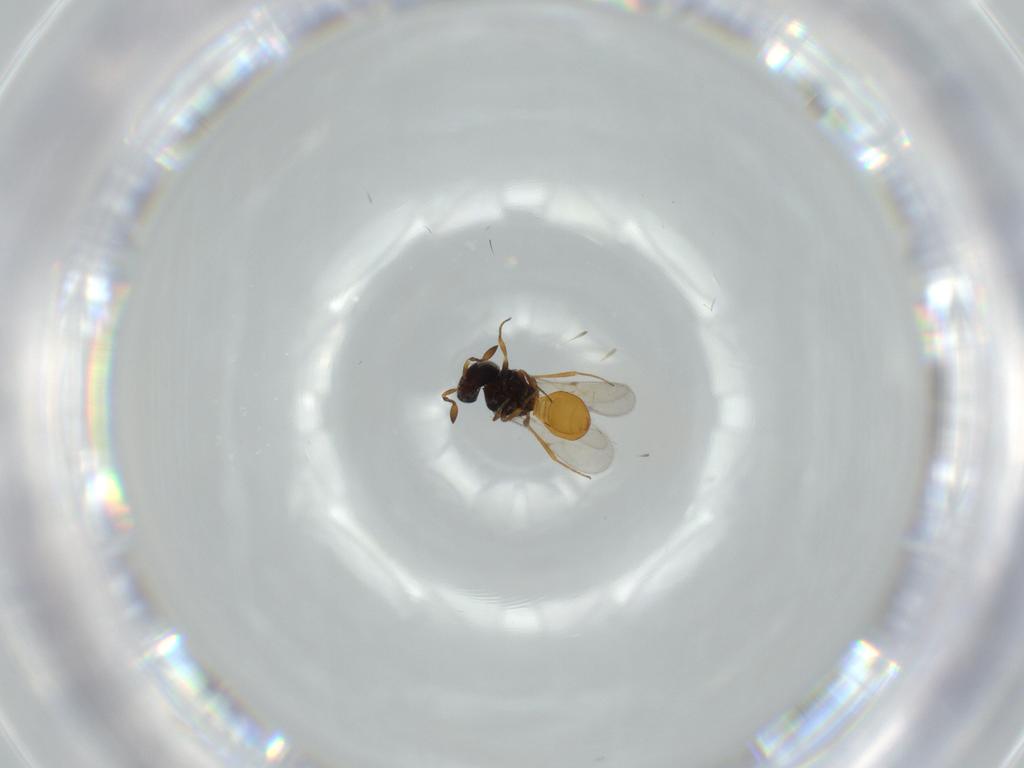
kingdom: Animalia
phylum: Arthropoda
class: Insecta
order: Hymenoptera
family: Scelionidae
